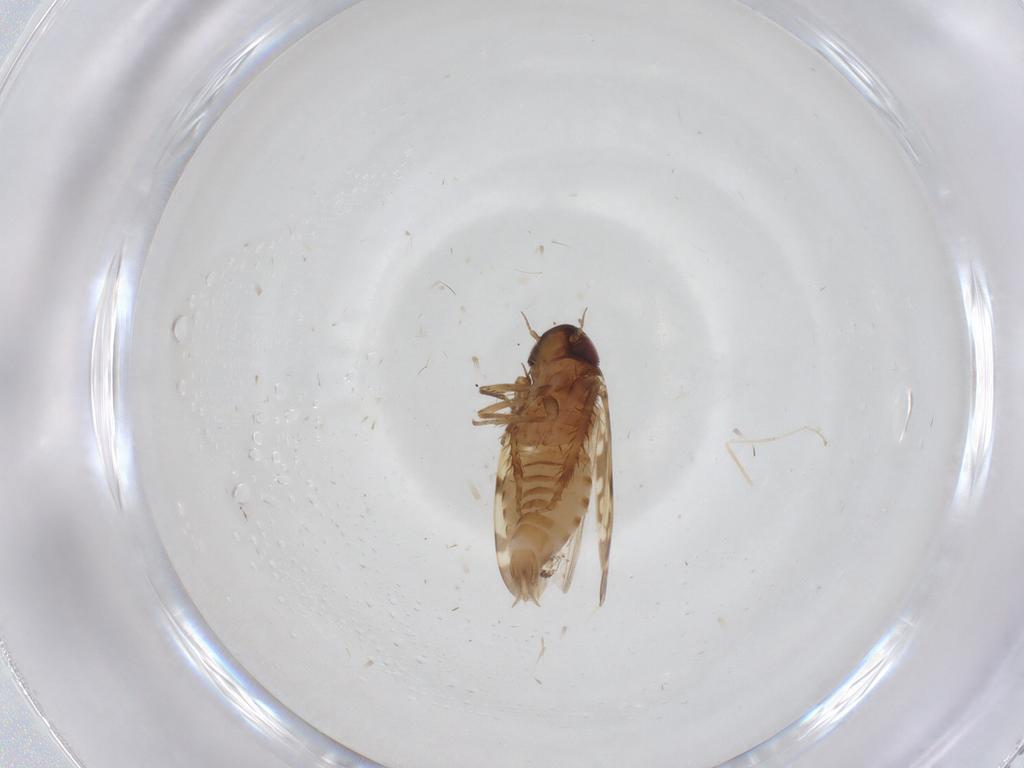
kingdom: Animalia
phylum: Arthropoda
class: Insecta
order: Hemiptera
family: Cicadellidae
